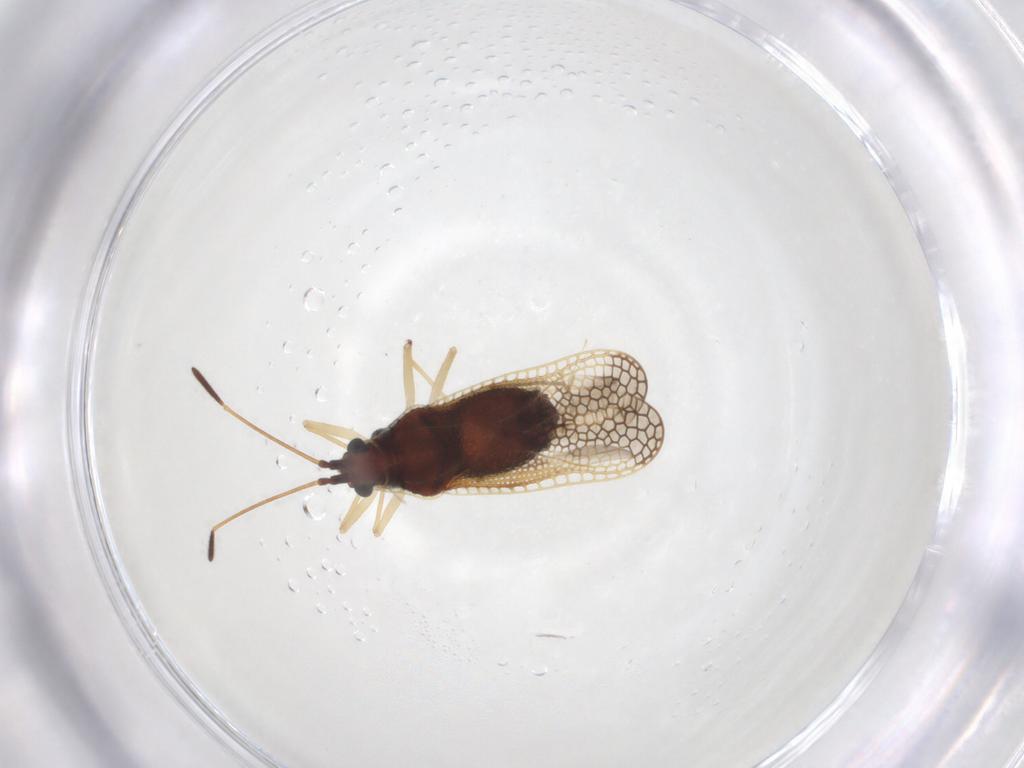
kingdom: Animalia
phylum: Arthropoda
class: Insecta
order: Hemiptera
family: Tingidae
